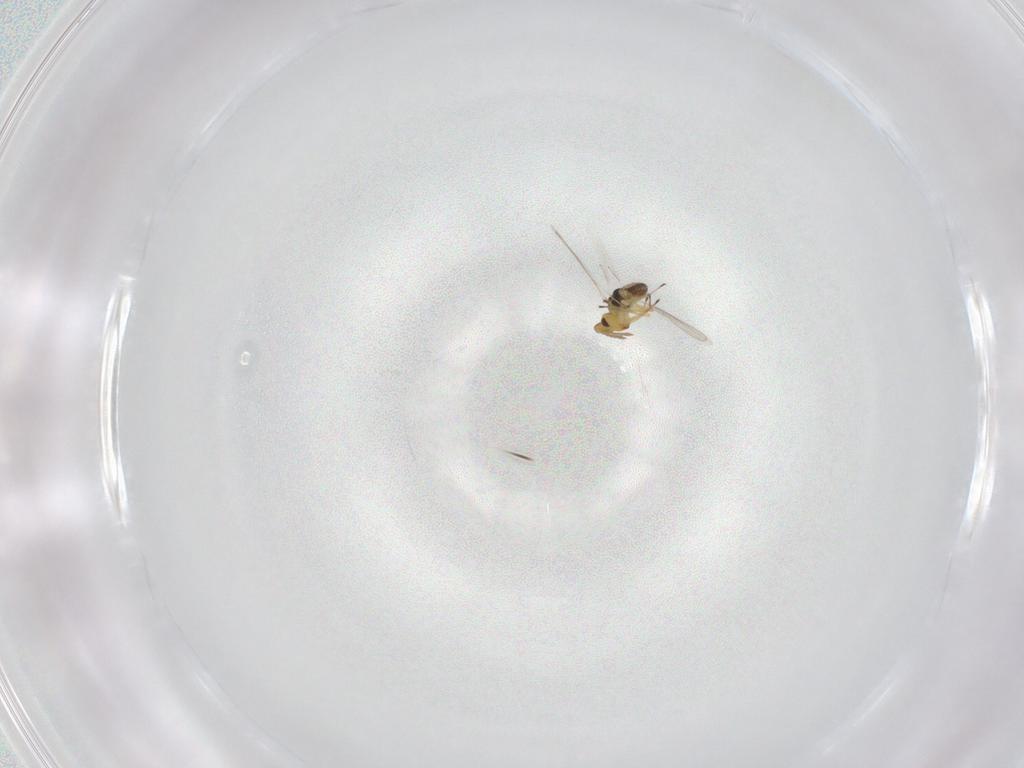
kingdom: Animalia
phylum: Arthropoda
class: Insecta
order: Hymenoptera
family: Eulophidae
